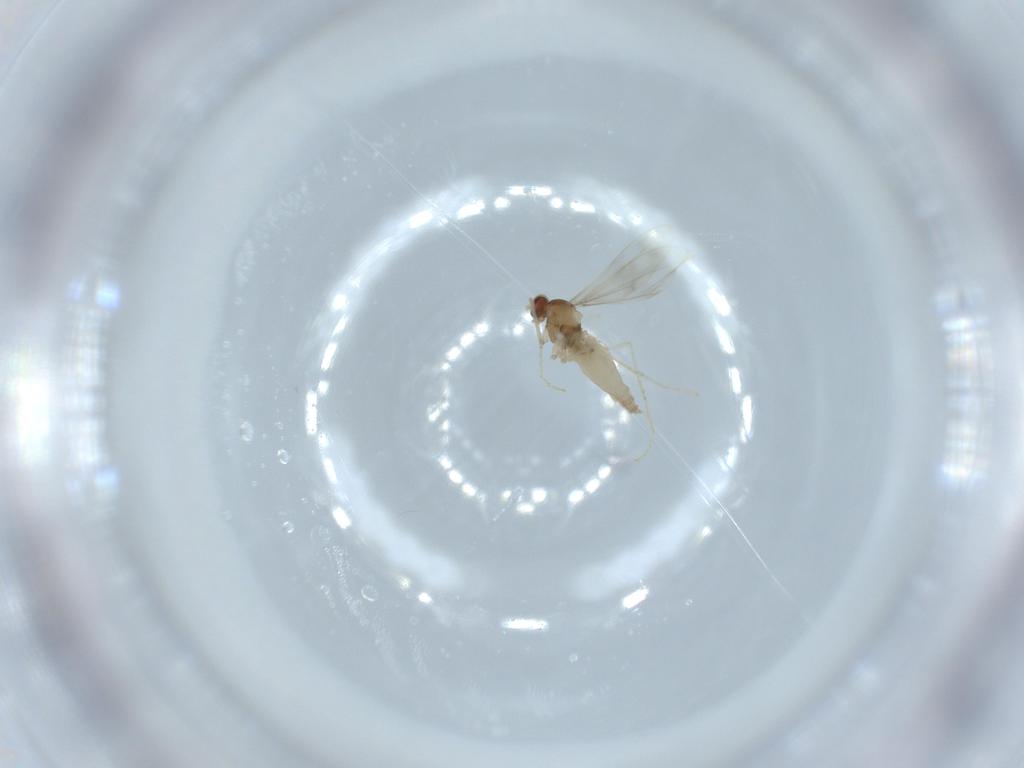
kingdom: Animalia
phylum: Arthropoda
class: Insecta
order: Diptera
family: Cecidomyiidae
